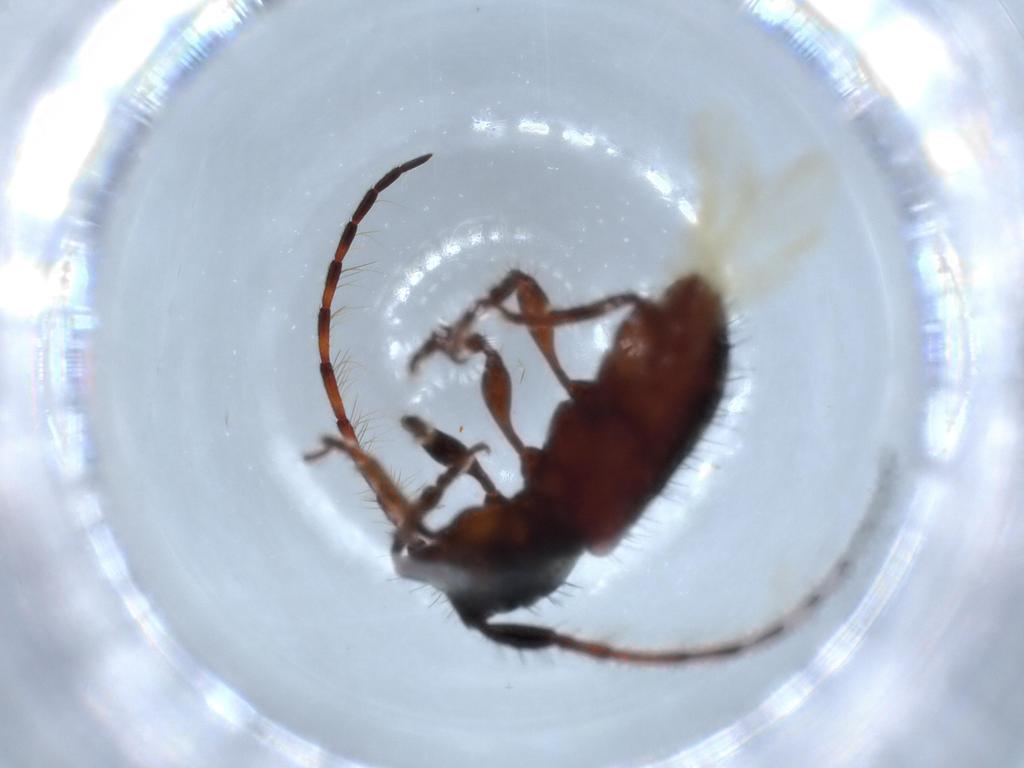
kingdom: Animalia
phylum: Arthropoda
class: Insecta
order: Coleoptera
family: Cerambycidae
